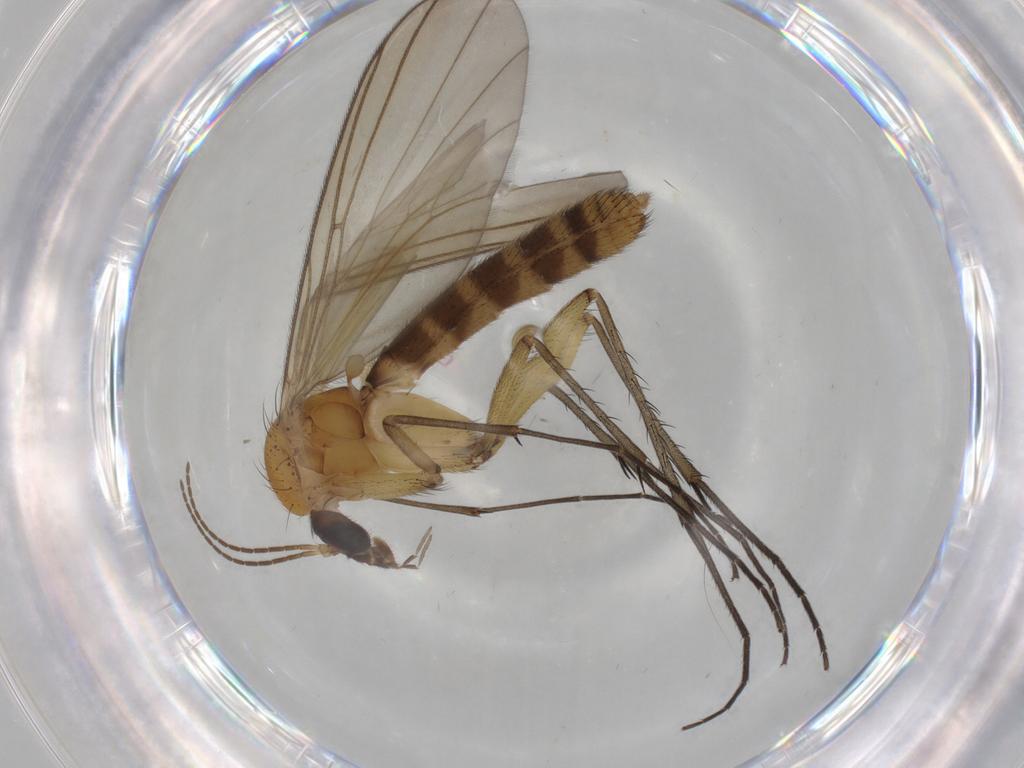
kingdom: Animalia
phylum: Arthropoda
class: Insecta
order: Diptera
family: Mycetophilidae
